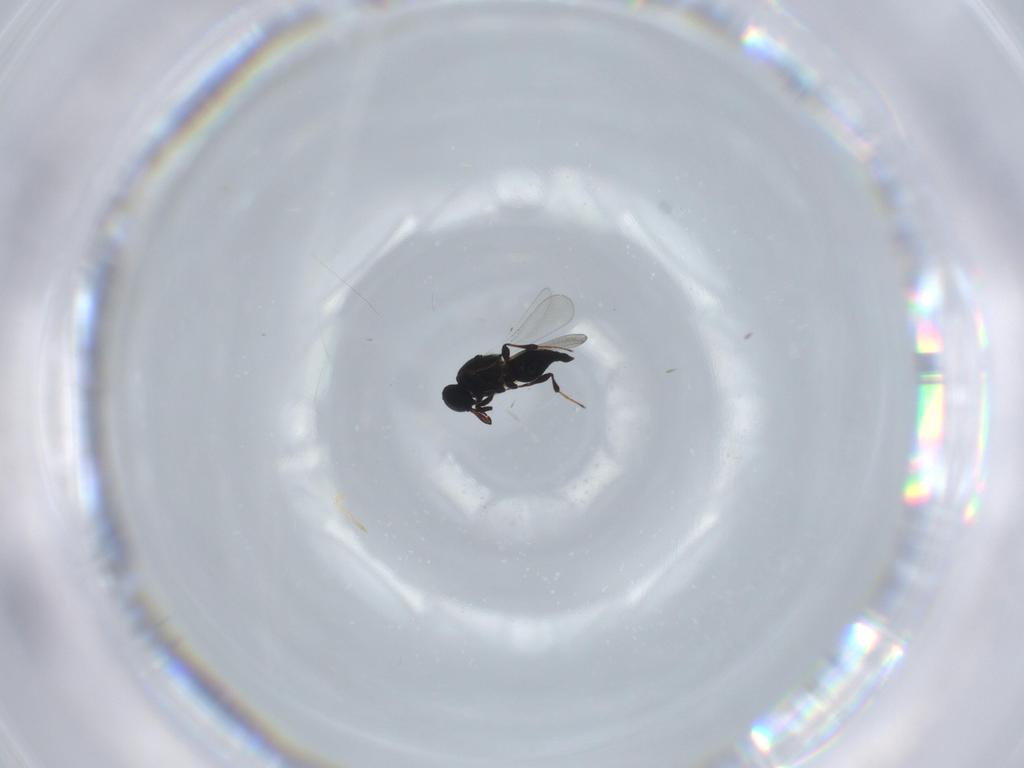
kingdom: Animalia
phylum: Arthropoda
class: Insecta
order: Hymenoptera
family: Platygastridae
